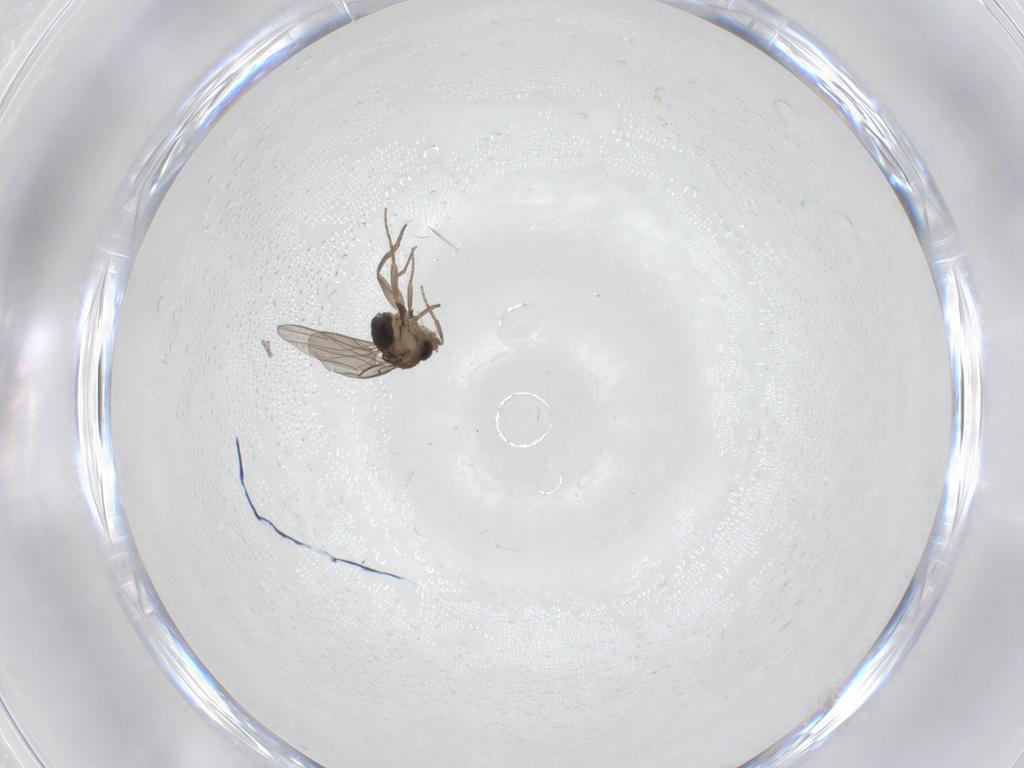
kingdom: Animalia
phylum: Arthropoda
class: Insecta
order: Diptera
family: Phoridae
